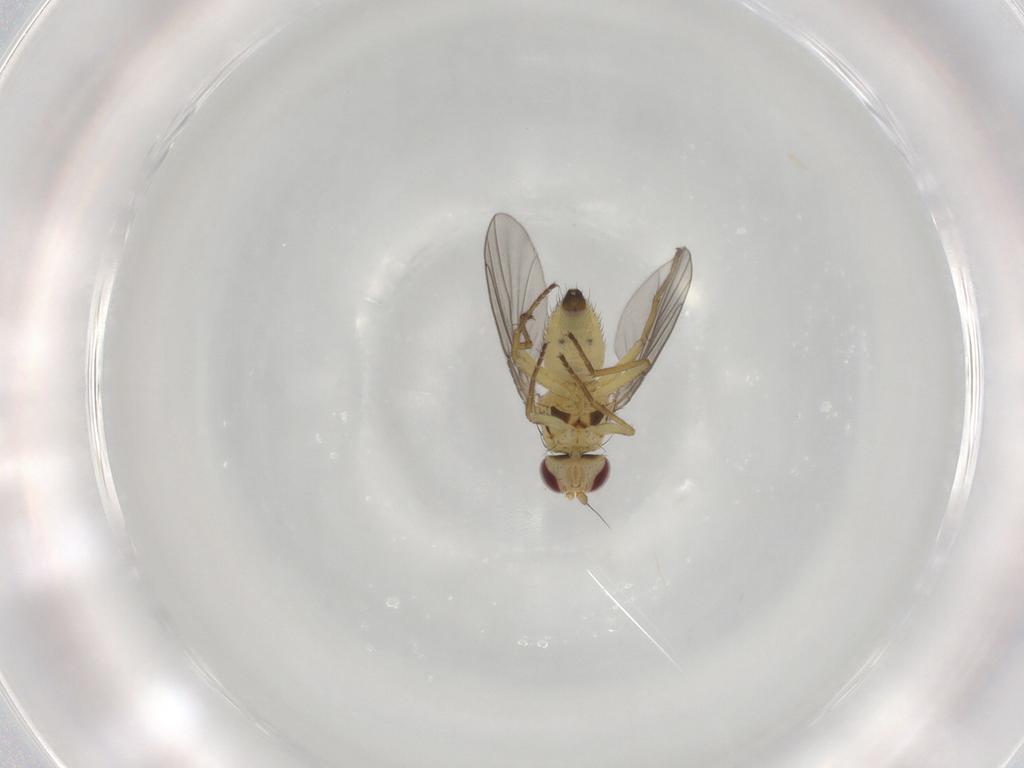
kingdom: Animalia
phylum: Arthropoda
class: Insecta
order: Diptera
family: Agromyzidae
